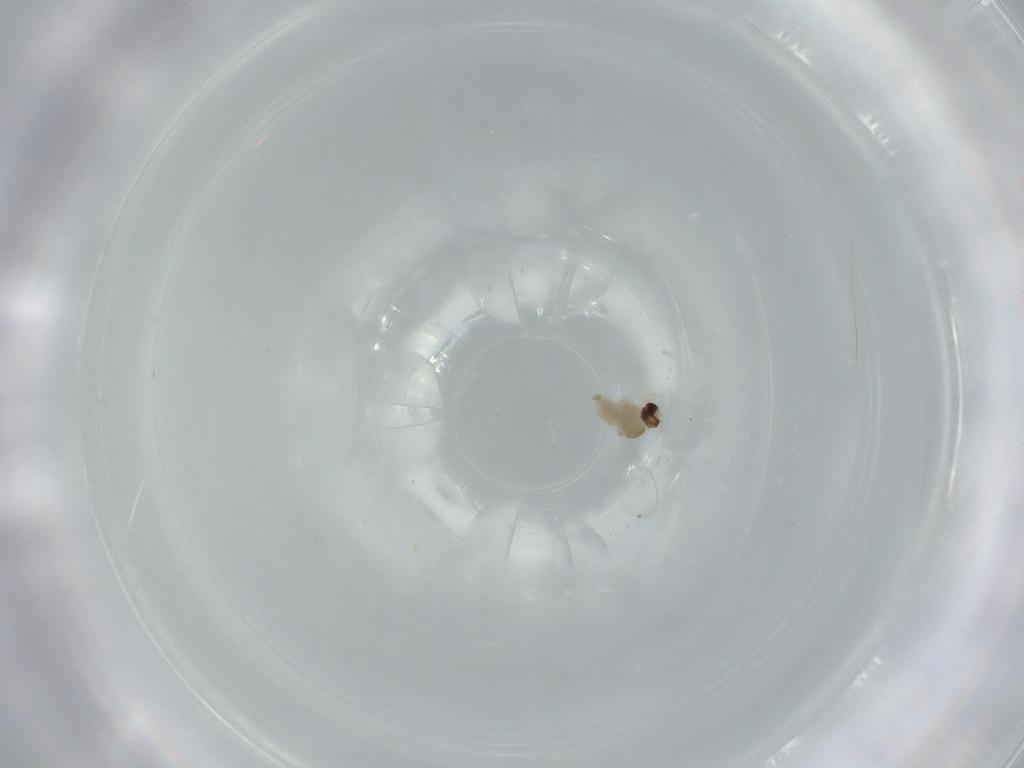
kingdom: Animalia
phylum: Arthropoda
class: Insecta
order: Diptera
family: Chironomidae
